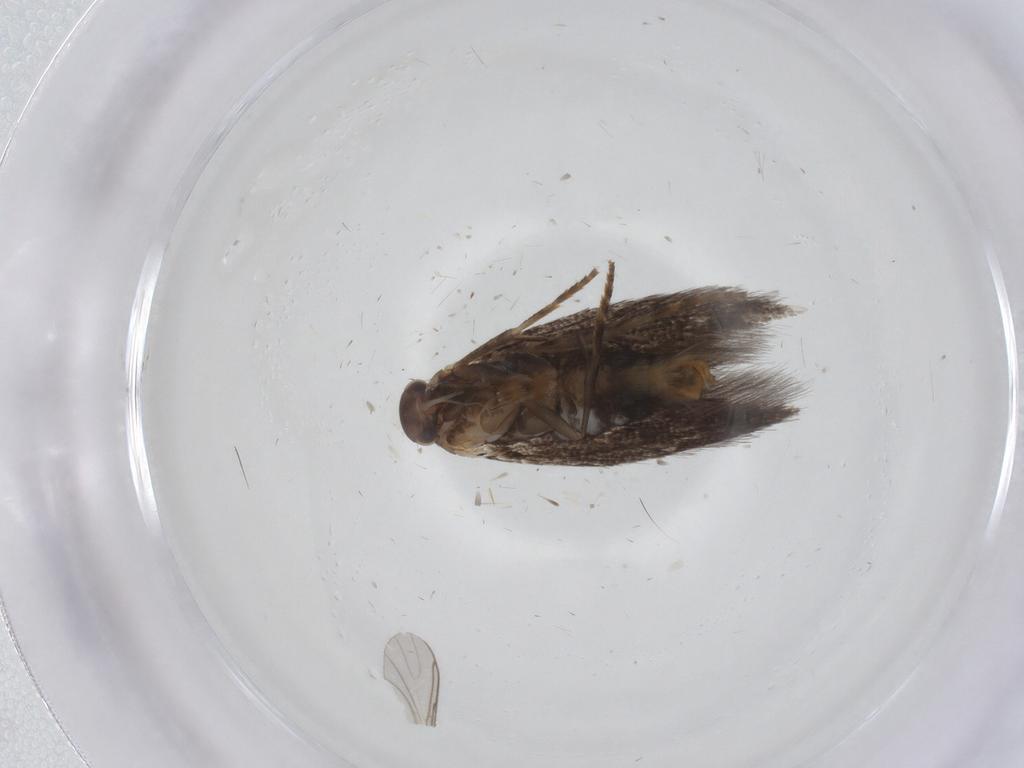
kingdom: Animalia
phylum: Arthropoda
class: Insecta
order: Lepidoptera
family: Elachistidae
